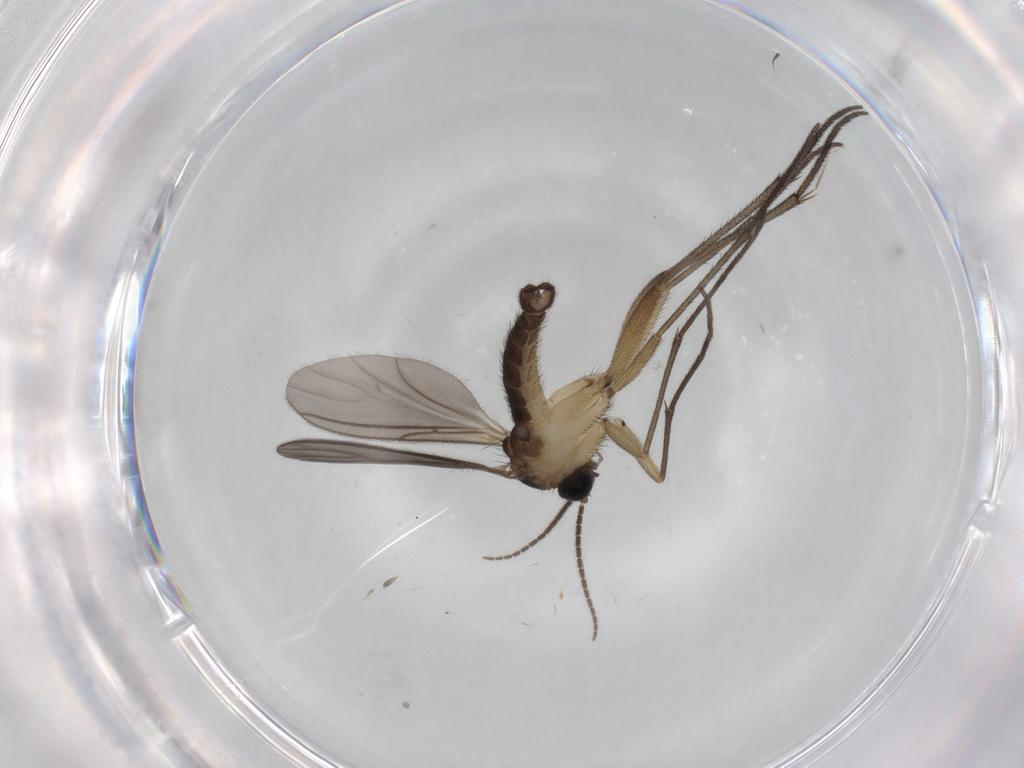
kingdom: Animalia
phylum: Arthropoda
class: Insecta
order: Diptera
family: Sciaridae
